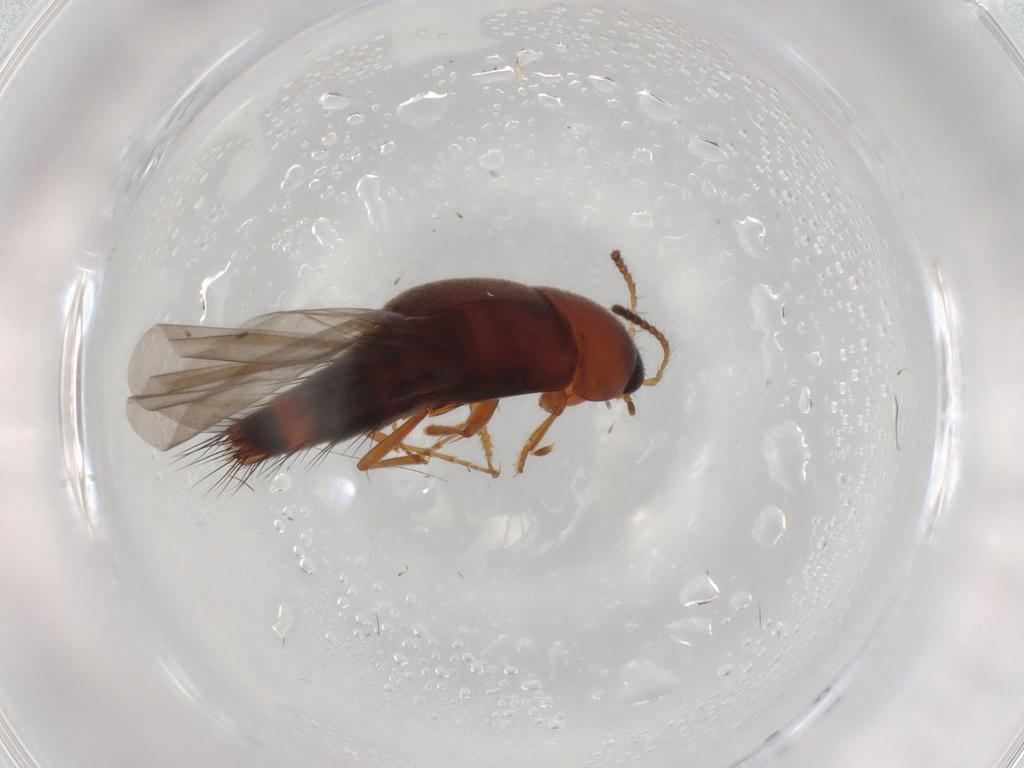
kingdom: Animalia
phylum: Arthropoda
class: Insecta
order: Coleoptera
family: Staphylinidae
